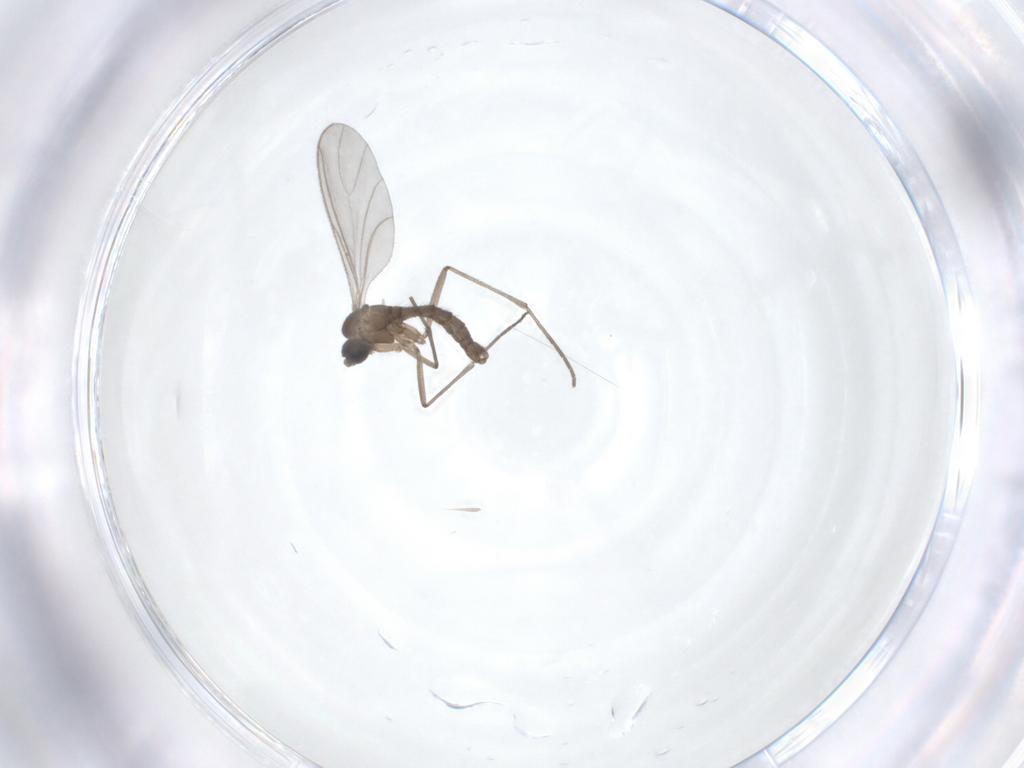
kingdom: Animalia
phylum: Arthropoda
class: Insecta
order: Diptera
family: Sciaridae
